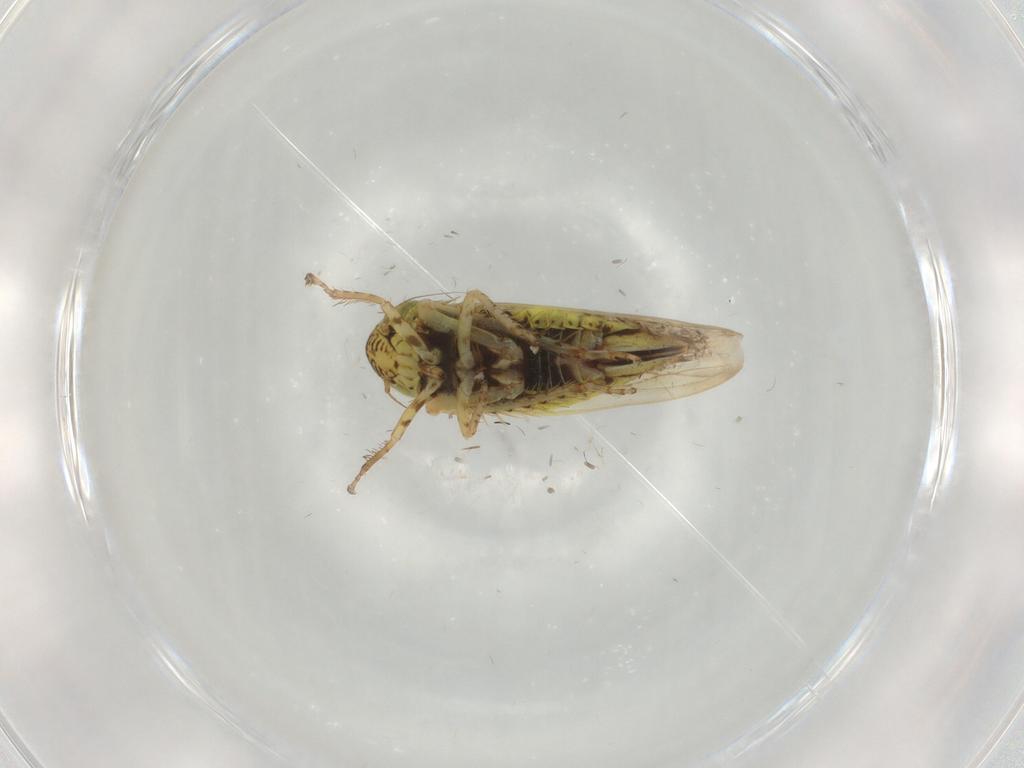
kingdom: Animalia
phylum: Arthropoda
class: Insecta
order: Hemiptera
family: Cicadellidae
